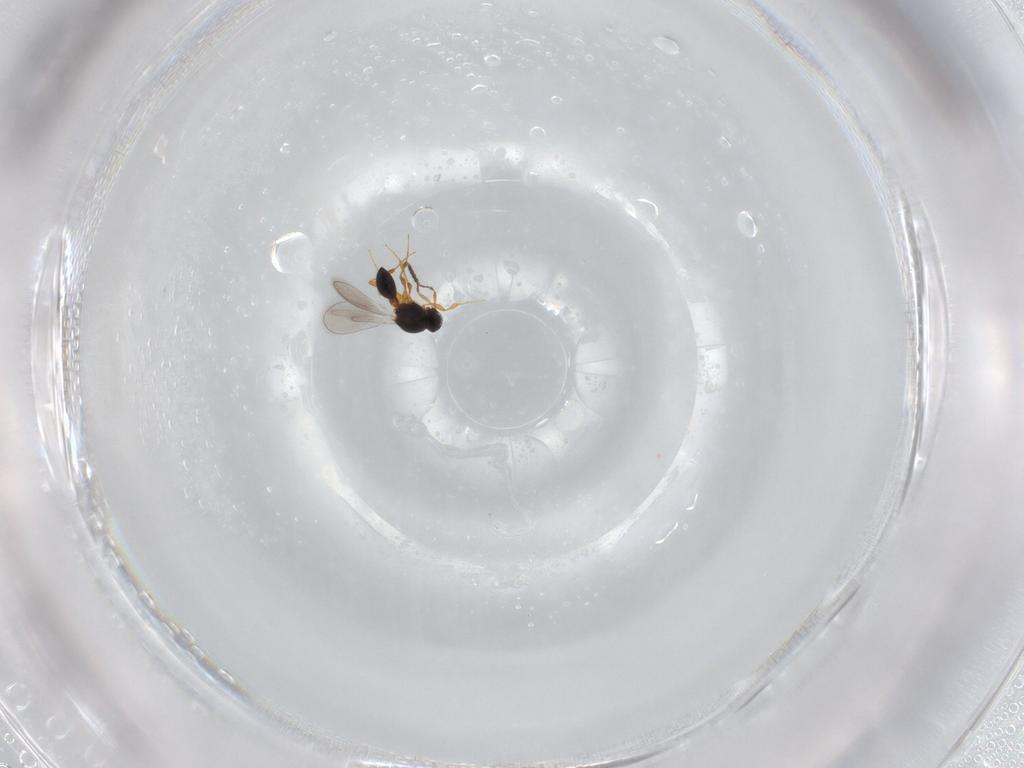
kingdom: Animalia
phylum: Arthropoda
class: Insecta
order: Hymenoptera
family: Platygastridae
